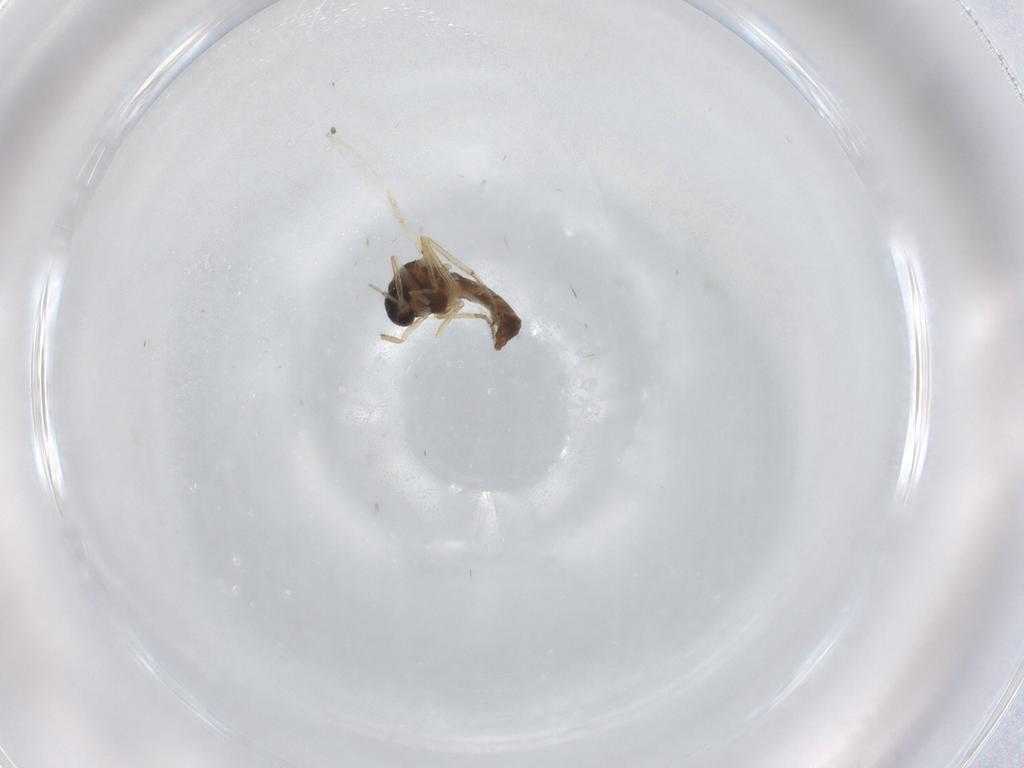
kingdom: Animalia
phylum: Arthropoda
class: Insecta
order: Diptera
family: Ceratopogonidae
